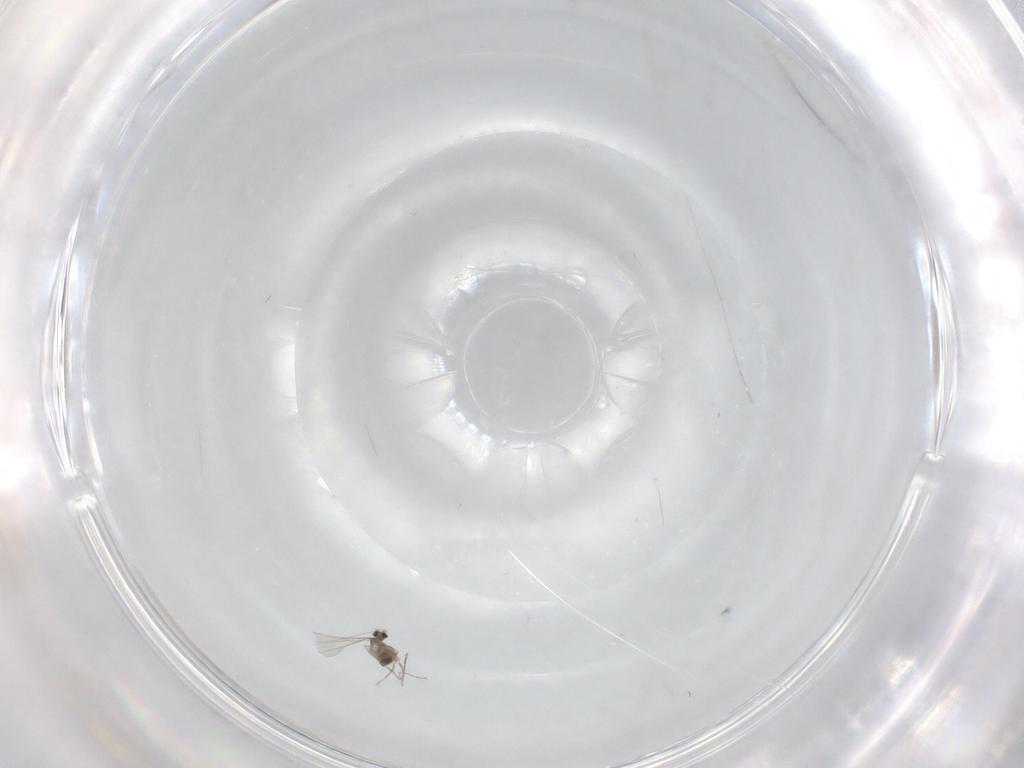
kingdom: Animalia
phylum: Arthropoda
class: Insecta
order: Diptera
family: Cecidomyiidae
